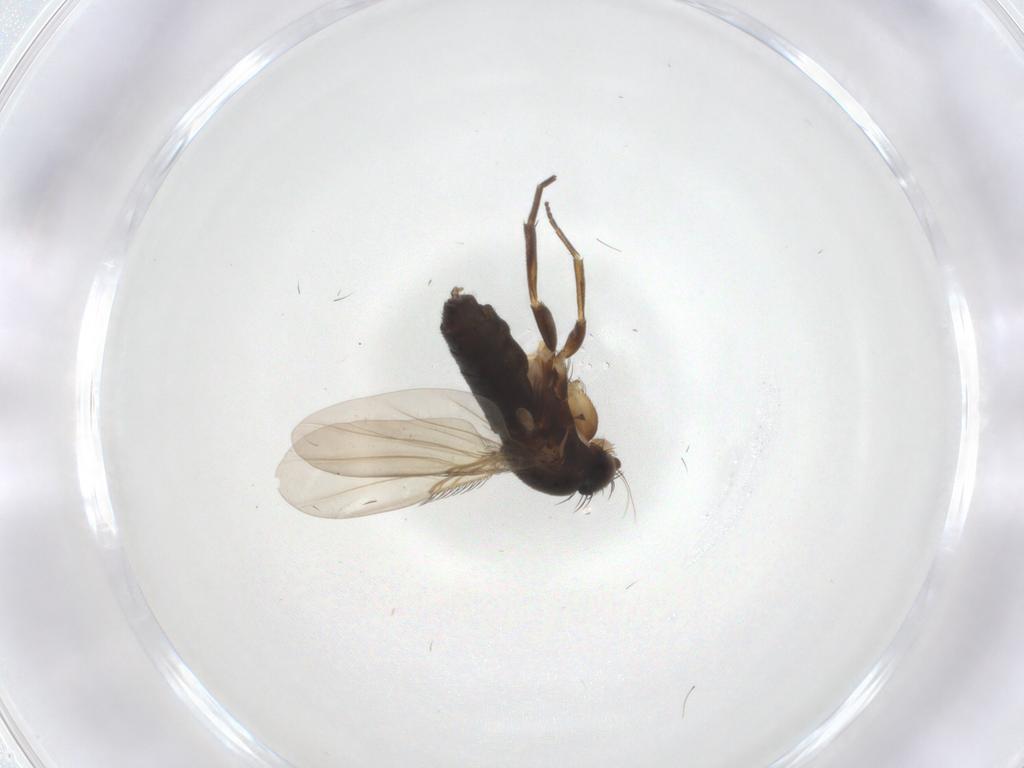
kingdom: Animalia
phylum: Arthropoda
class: Insecta
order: Diptera
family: Phoridae
